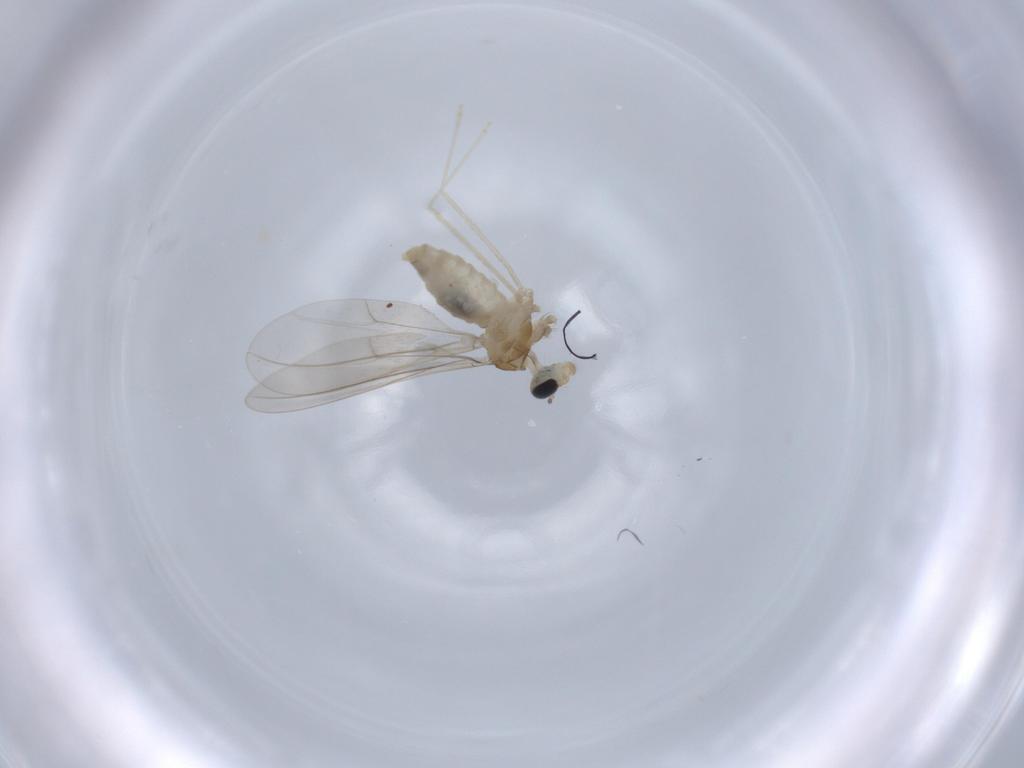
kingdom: Animalia
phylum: Arthropoda
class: Insecta
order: Diptera
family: Cecidomyiidae
